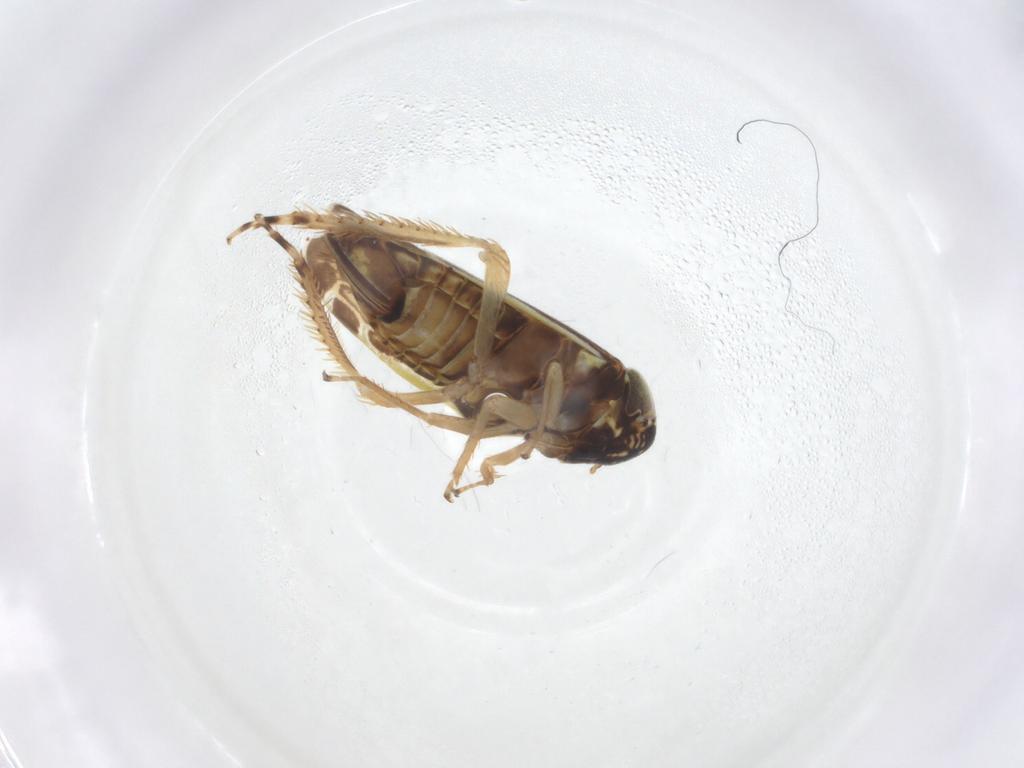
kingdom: Animalia
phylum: Arthropoda
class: Insecta
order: Hemiptera
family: Cicadellidae
